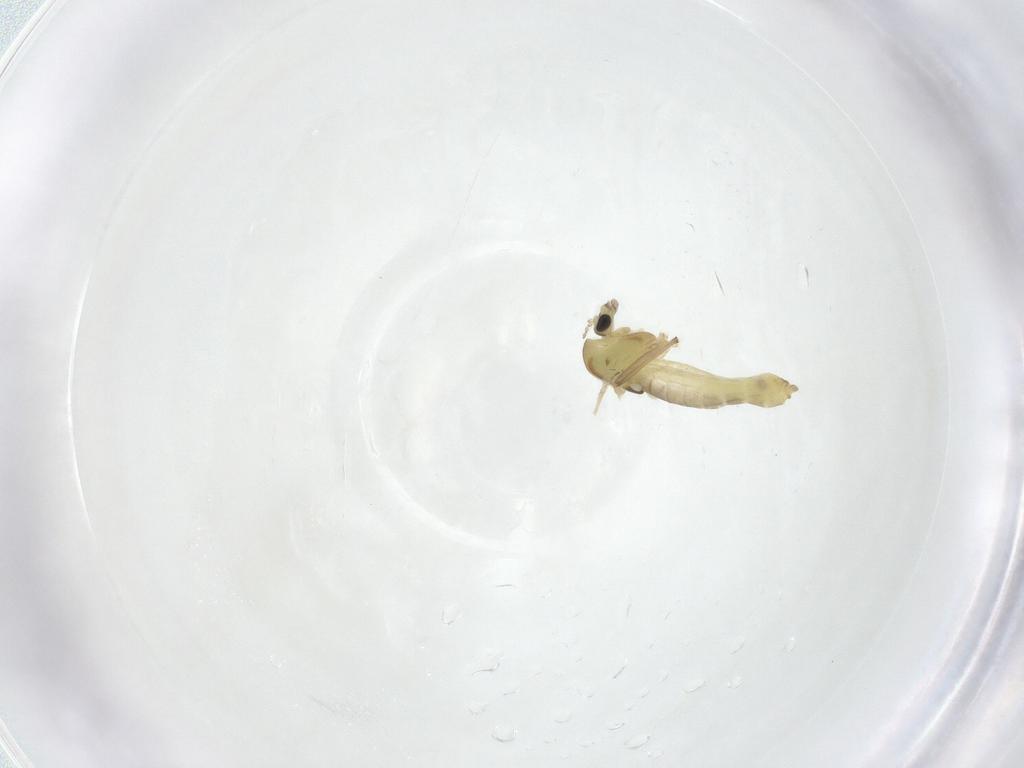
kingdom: Animalia
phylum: Arthropoda
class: Insecta
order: Diptera
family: Chironomidae
